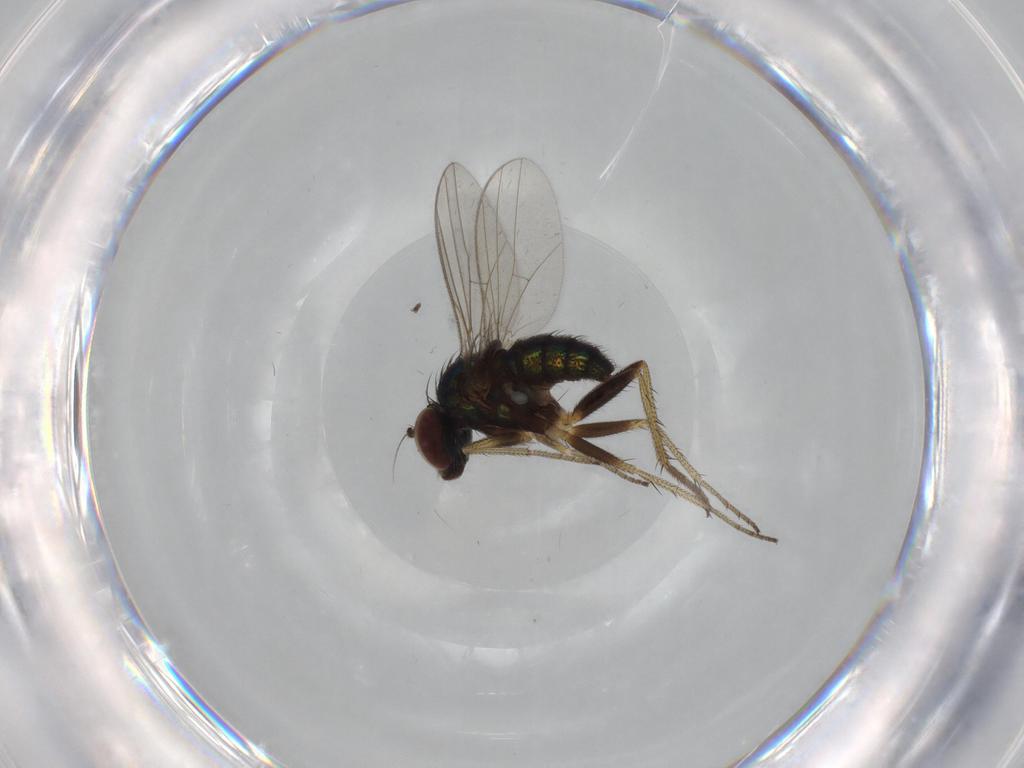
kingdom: Animalia
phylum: Arthropoda
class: Insecta
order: Diptera
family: Dolichopodidae
